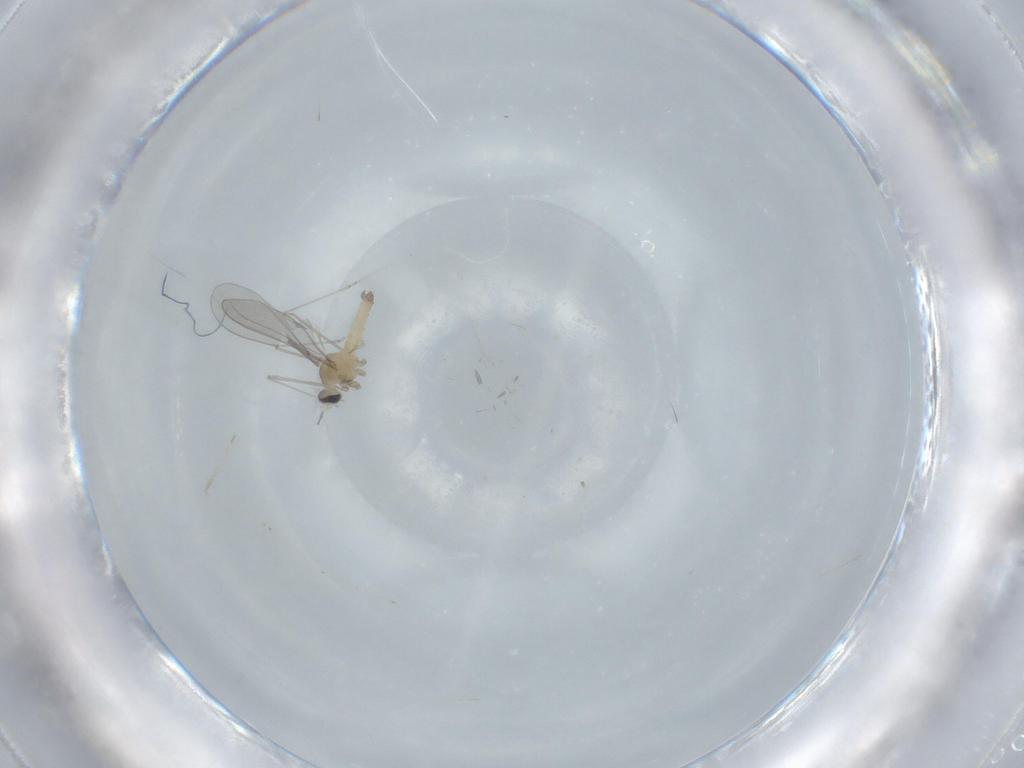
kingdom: Animalia
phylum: Arthropoda
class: Insecta
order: Diptera
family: Cecidomyiidae
